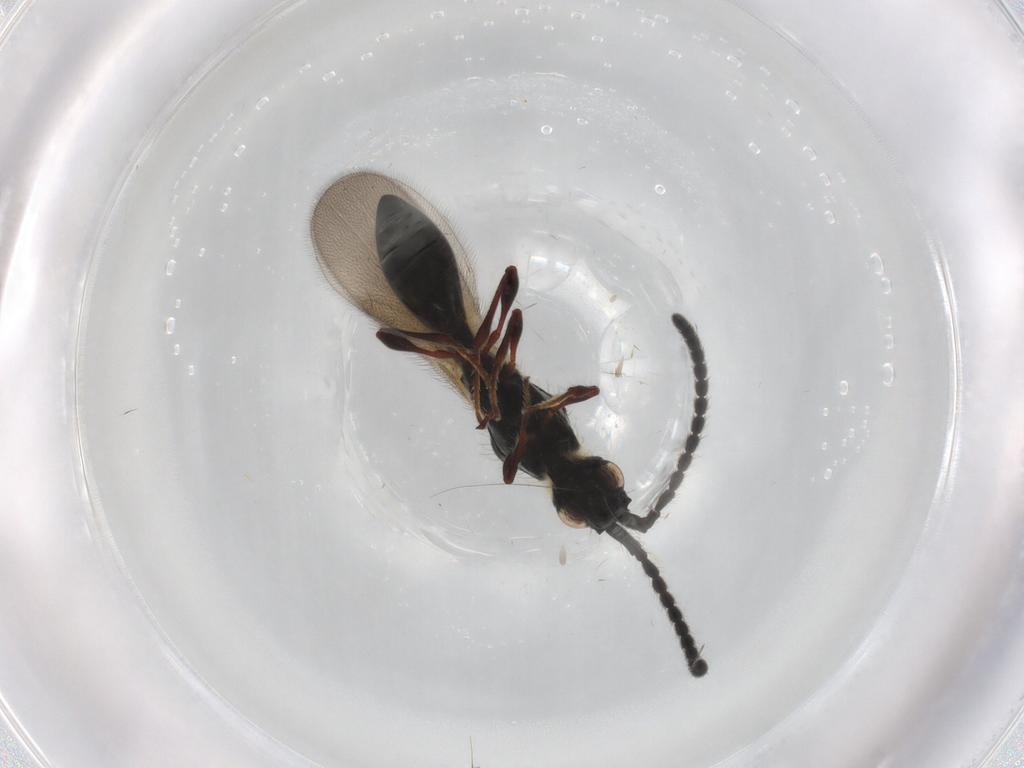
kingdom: Animalia
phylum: Arthropoda
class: Insecta
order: Hymenoptera
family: Diapriidae
